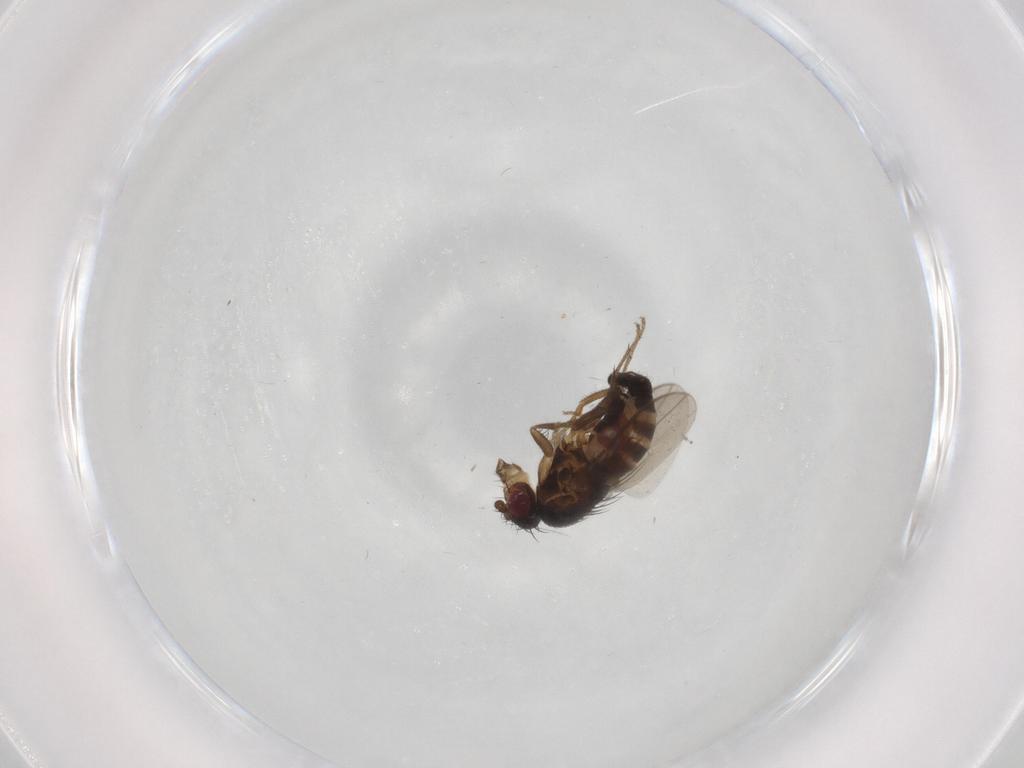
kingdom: Animalia
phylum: Arthropoda
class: Insecta
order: Diptera
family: Sphaeroceridae
